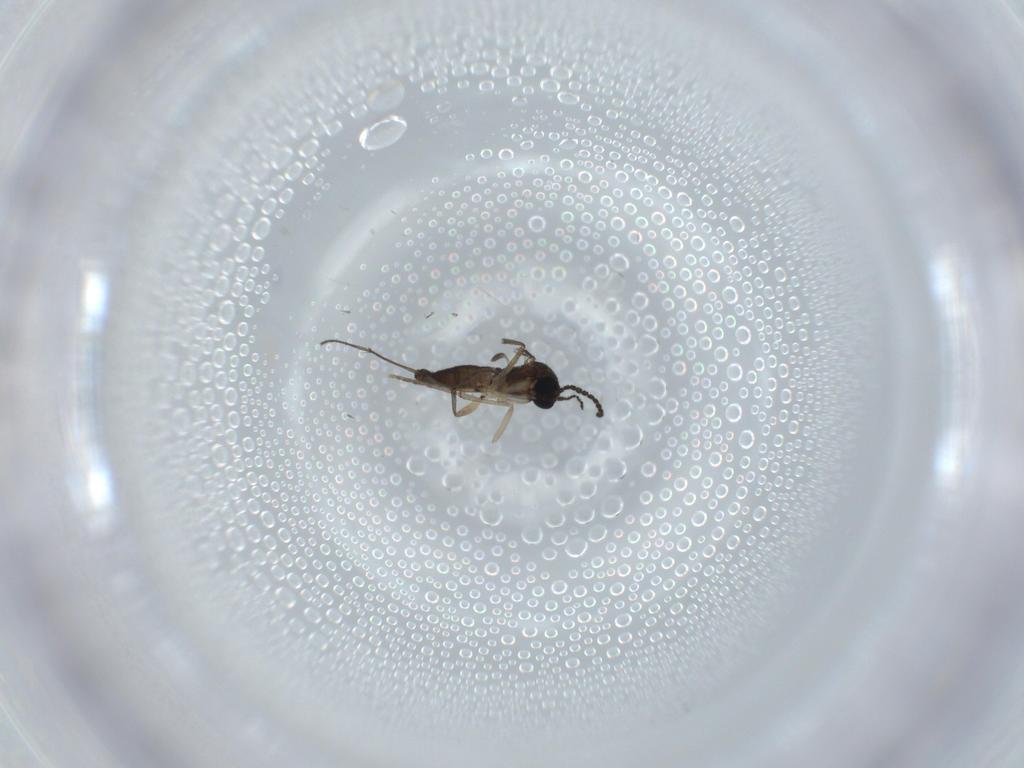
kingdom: Animalia
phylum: Arthropoda
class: Insecta
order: Diptera
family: Sciaridae
